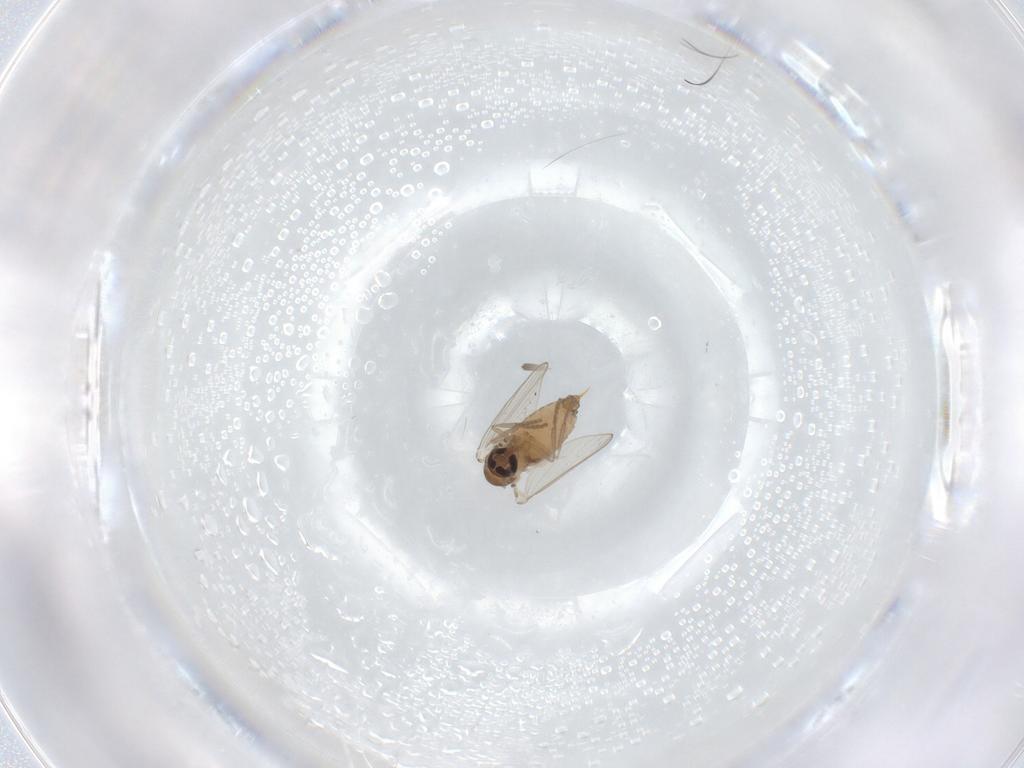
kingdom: Animalia
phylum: Arthropoda
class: Insecta
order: Diptera
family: Psychodidae
